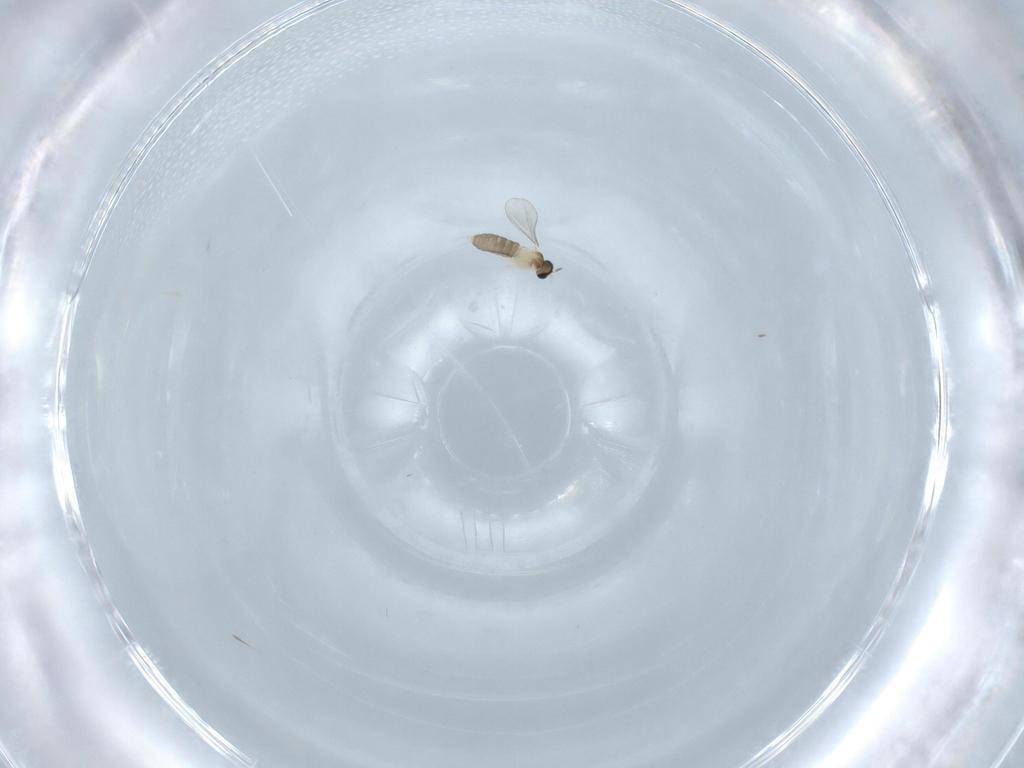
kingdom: Animalia
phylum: Arthropoda
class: Insecta
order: Diptera
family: Cecidomyiidae
